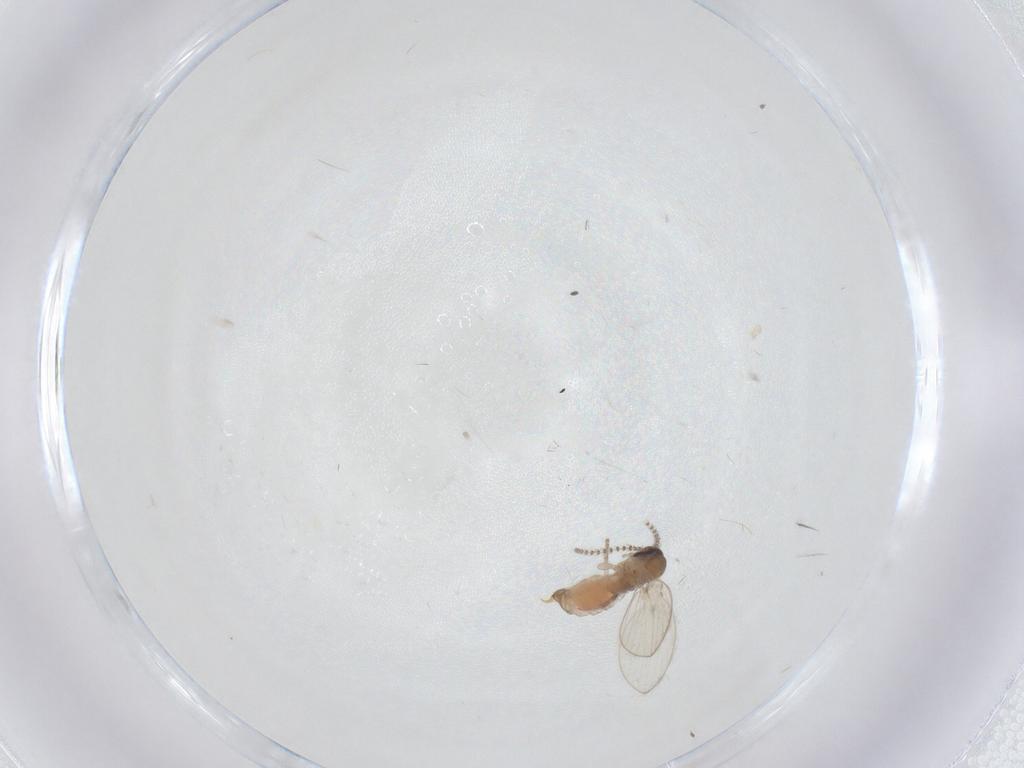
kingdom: Animalia
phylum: Arthropoda
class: Insecta
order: Diptera
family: Psychodidae
